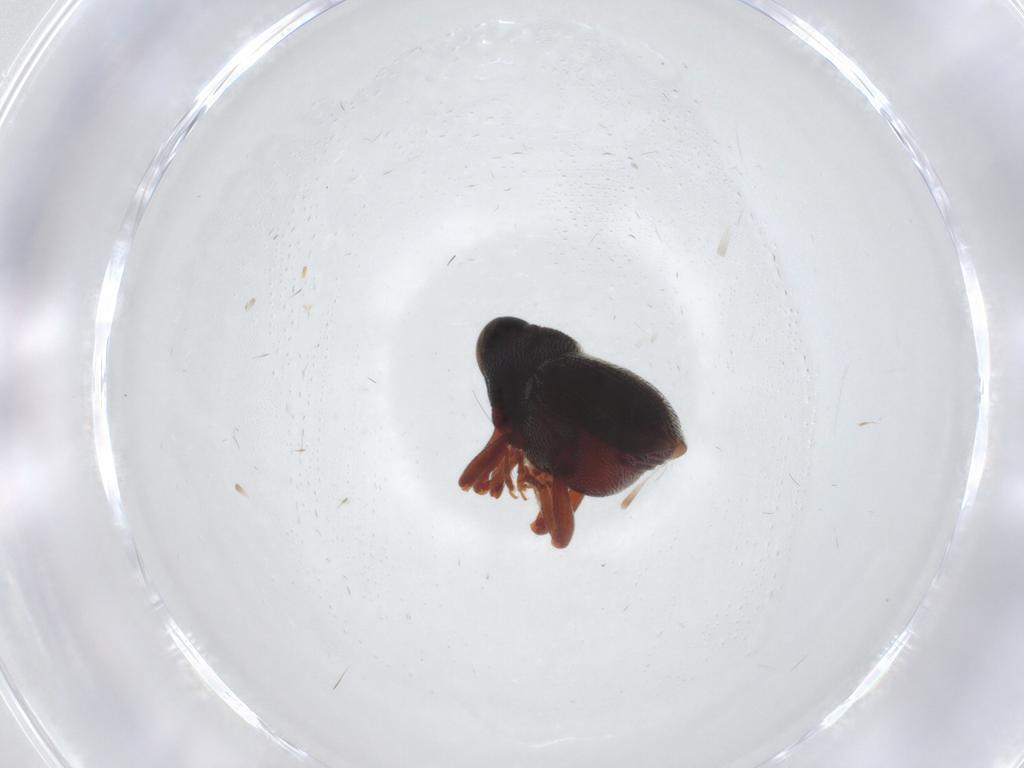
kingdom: Animalia
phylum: Arthropoda
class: Insecta
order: Coleoptera
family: Curculionidae
